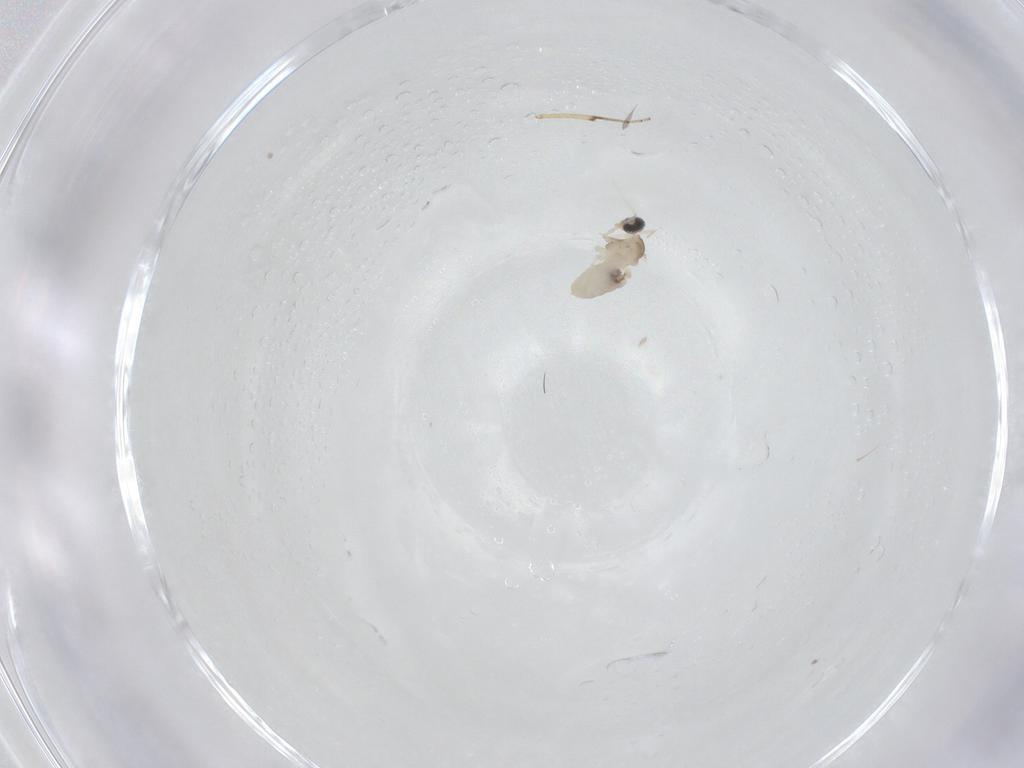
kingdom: Animalia
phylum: Arthropoda
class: Insecta
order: Diptera
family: Cecidomyiidae
